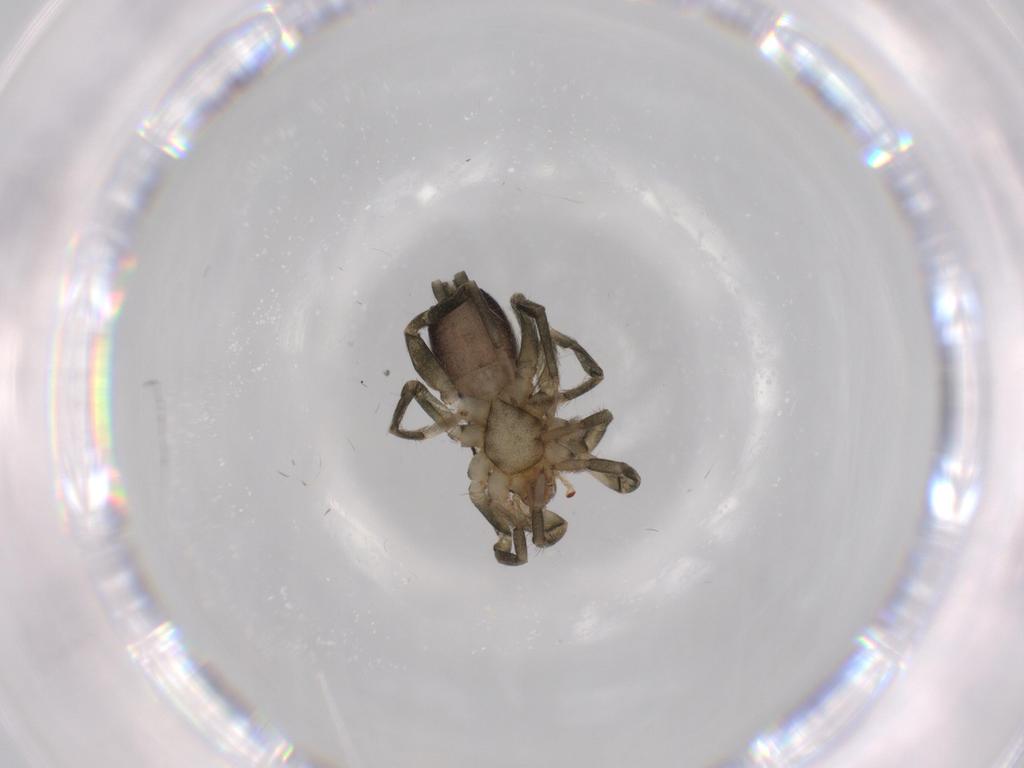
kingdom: Animalia
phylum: Arthropoda
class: Arachnida
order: Araneae
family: Gnaphosidae
